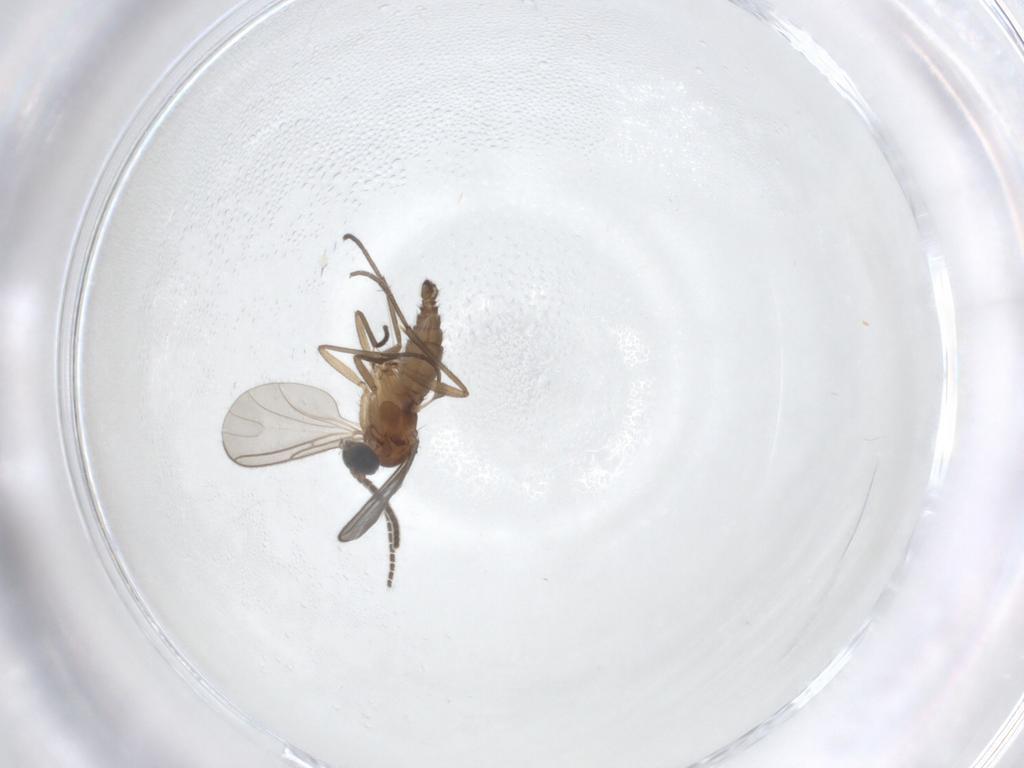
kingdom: Animalia
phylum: Arthropoda
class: Insecta
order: Diptera
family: Sciaridae
